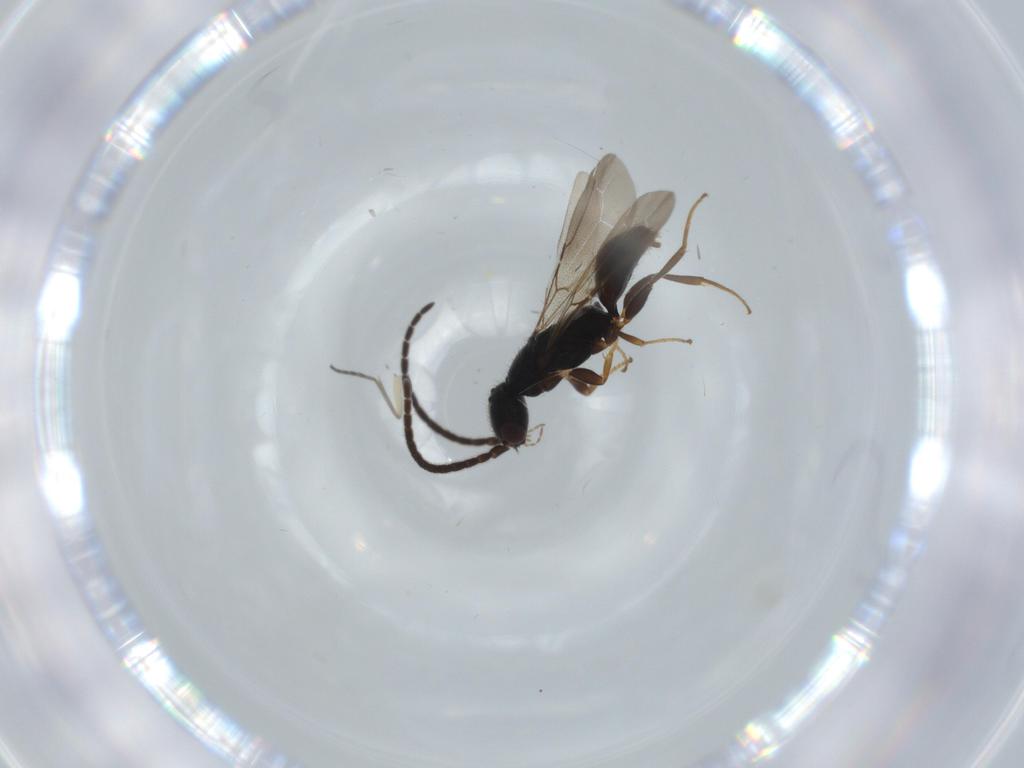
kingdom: Animalia
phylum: Arthropoda
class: Insecta
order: Hymenoptera
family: Bethylidae
